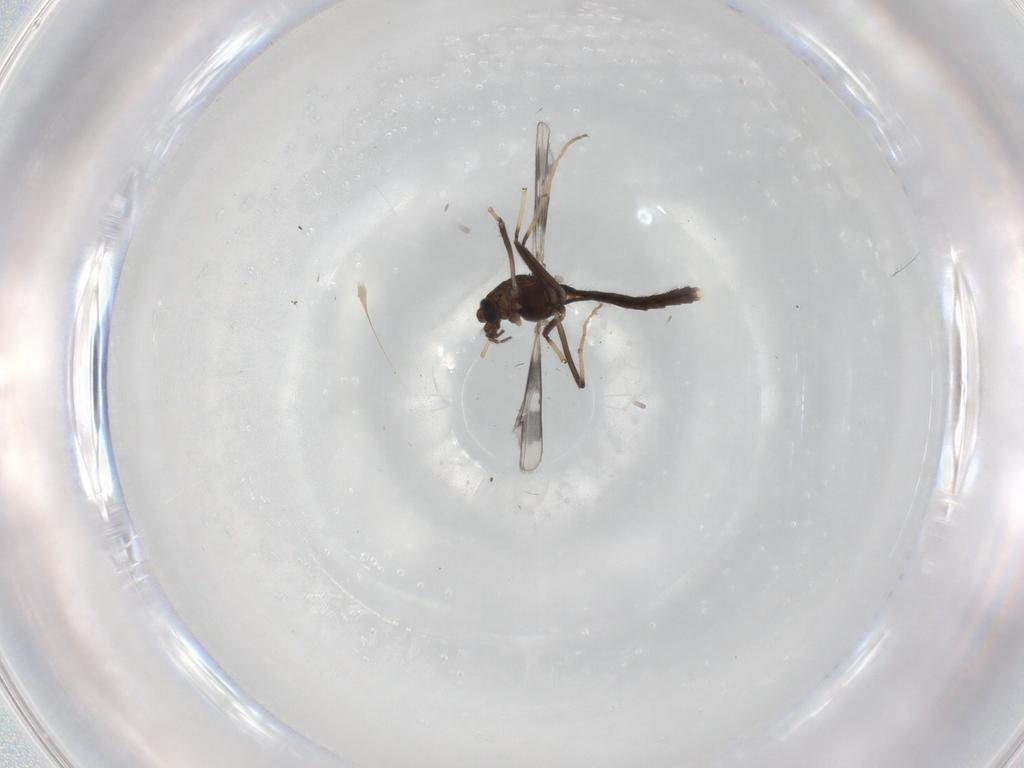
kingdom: Animalia
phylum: Arthropoda
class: Insecta
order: Diptera
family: Chironomidae
